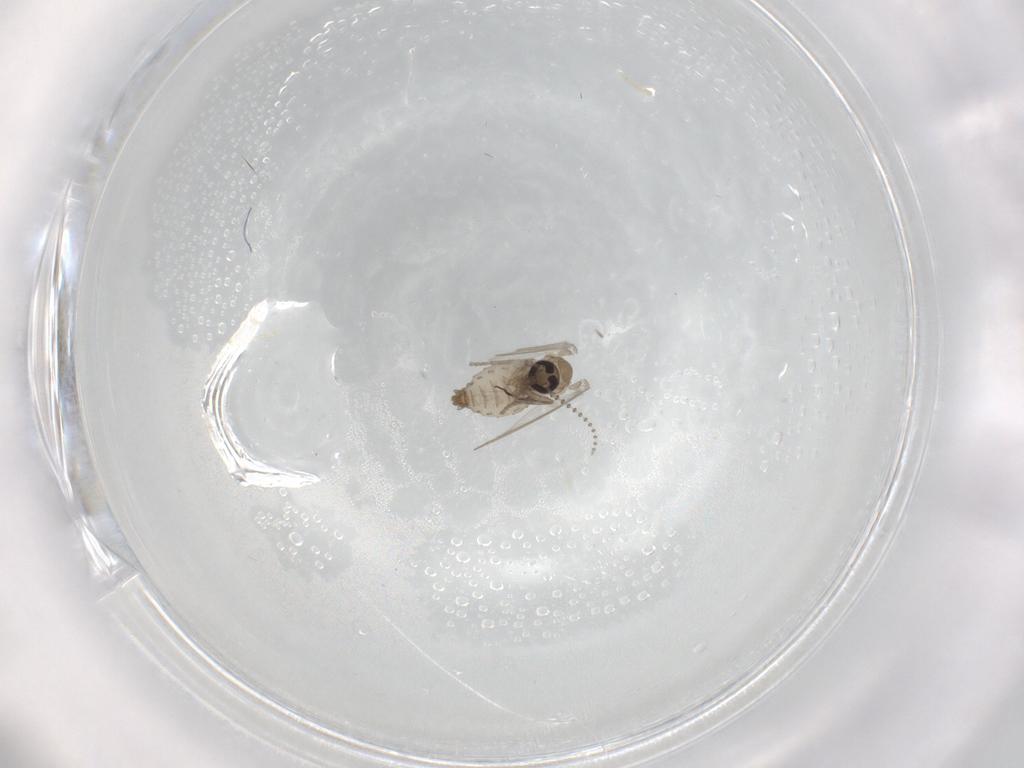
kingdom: Animalia
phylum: Arthropoda
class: Insecta
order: Diptera
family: Psychodidae
